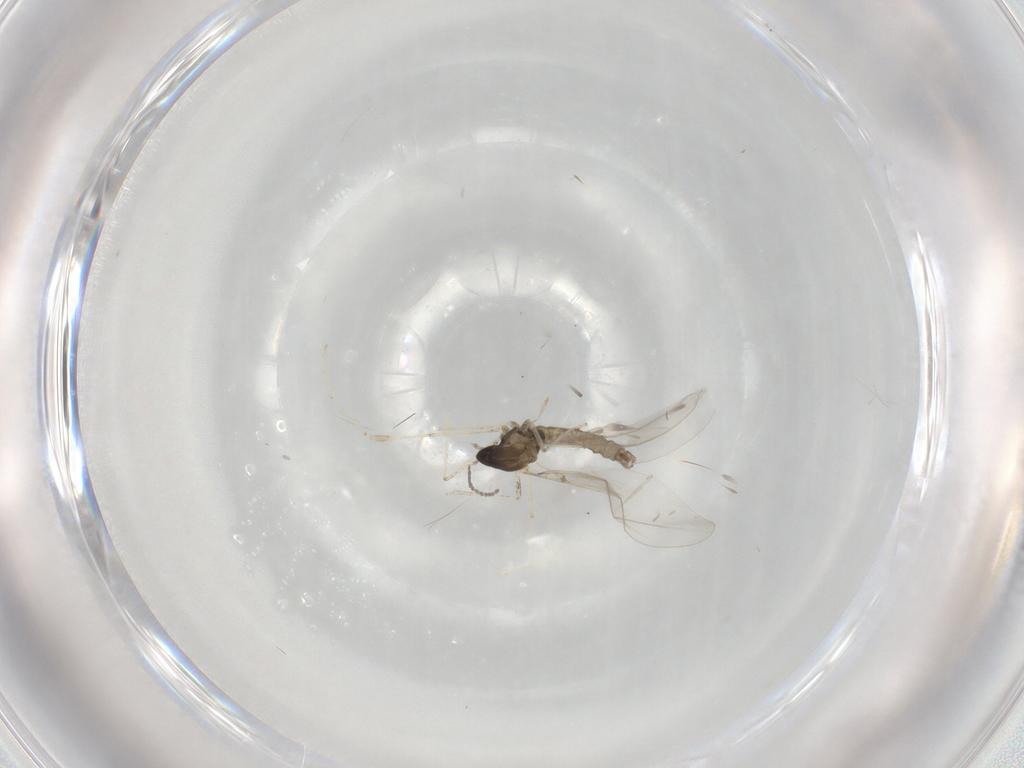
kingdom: Animalia
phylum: Arthropoda
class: Insecta
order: Diptera
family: Cecidomyiidae
